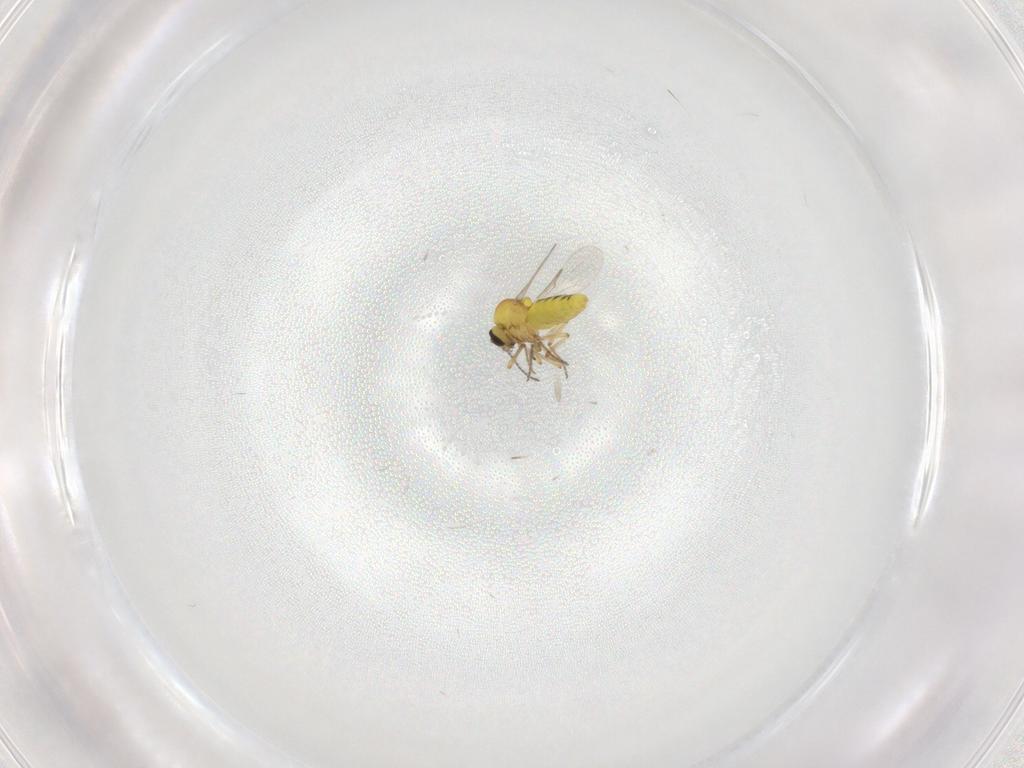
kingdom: Animalia
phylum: Arthropoda
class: Insecta
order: Diptera
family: Ceratopogonidae
